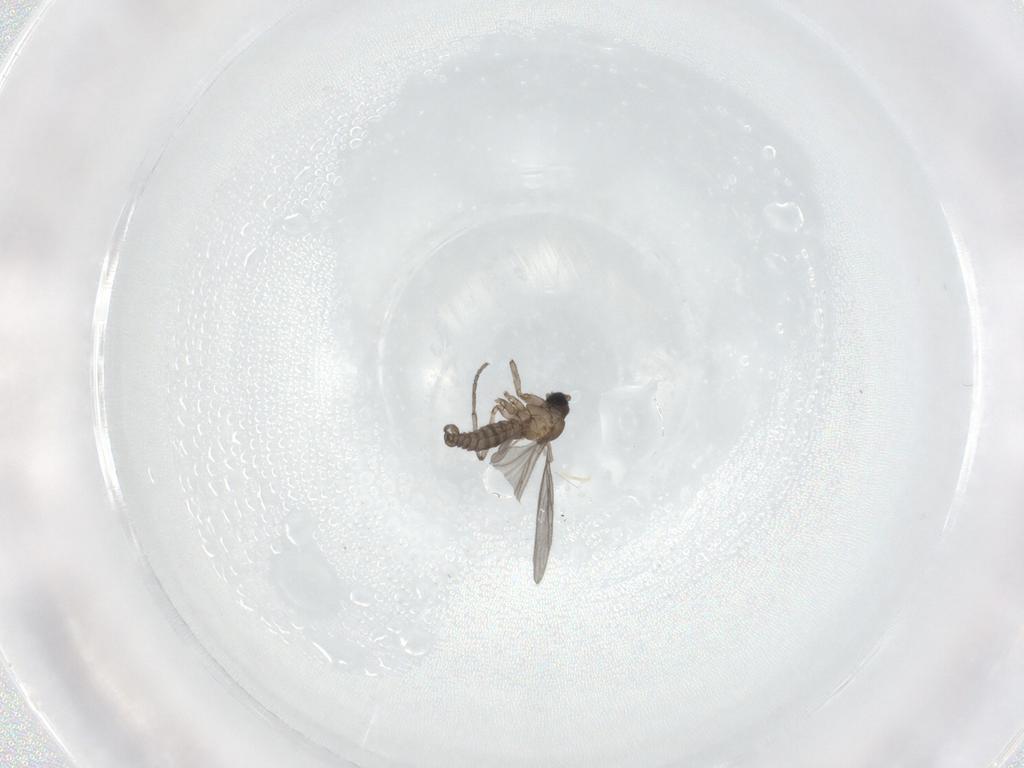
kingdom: Animalia
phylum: Arthropoda
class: Insecta
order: Diptera
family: Sciaridae
